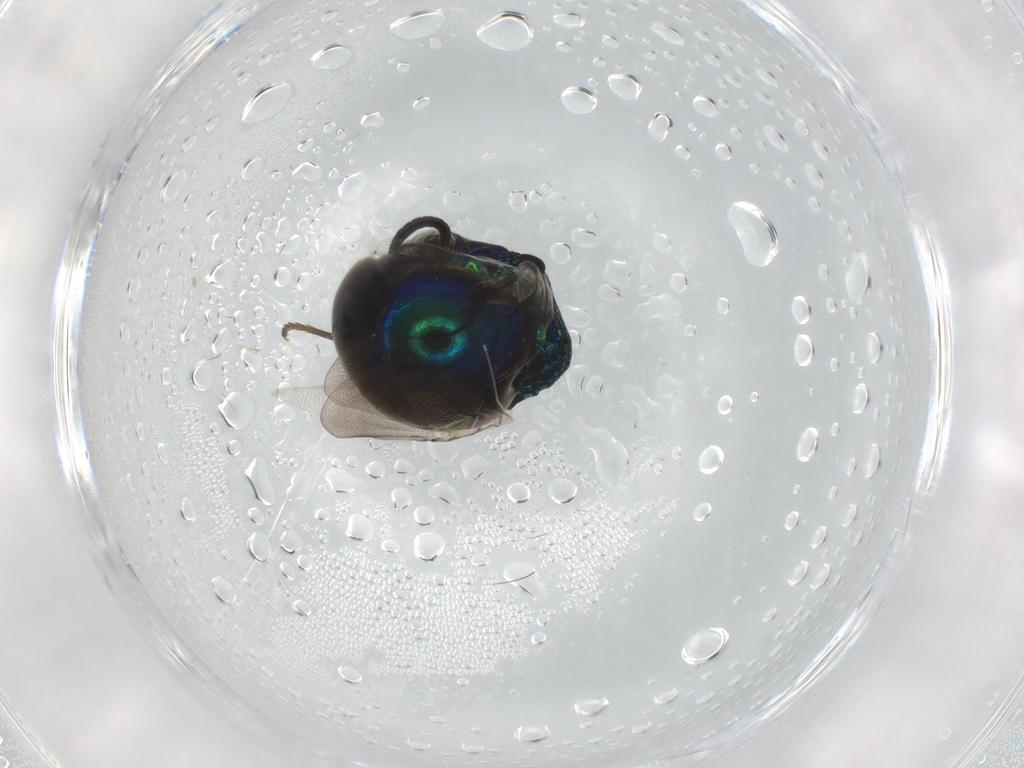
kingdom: Animalia
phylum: Arthropoda
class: Insecta
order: Hymenoptera
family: Chrysididae
